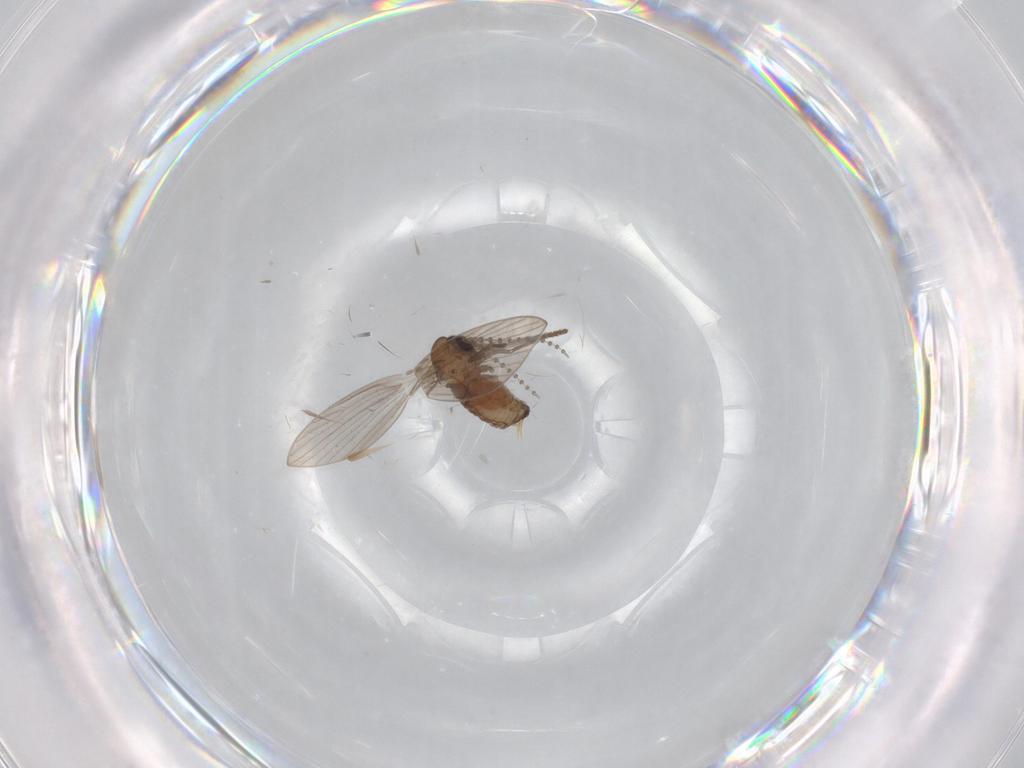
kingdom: Animalia
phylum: Arthropoda
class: Insecta
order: Diptera
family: Psychodidae
